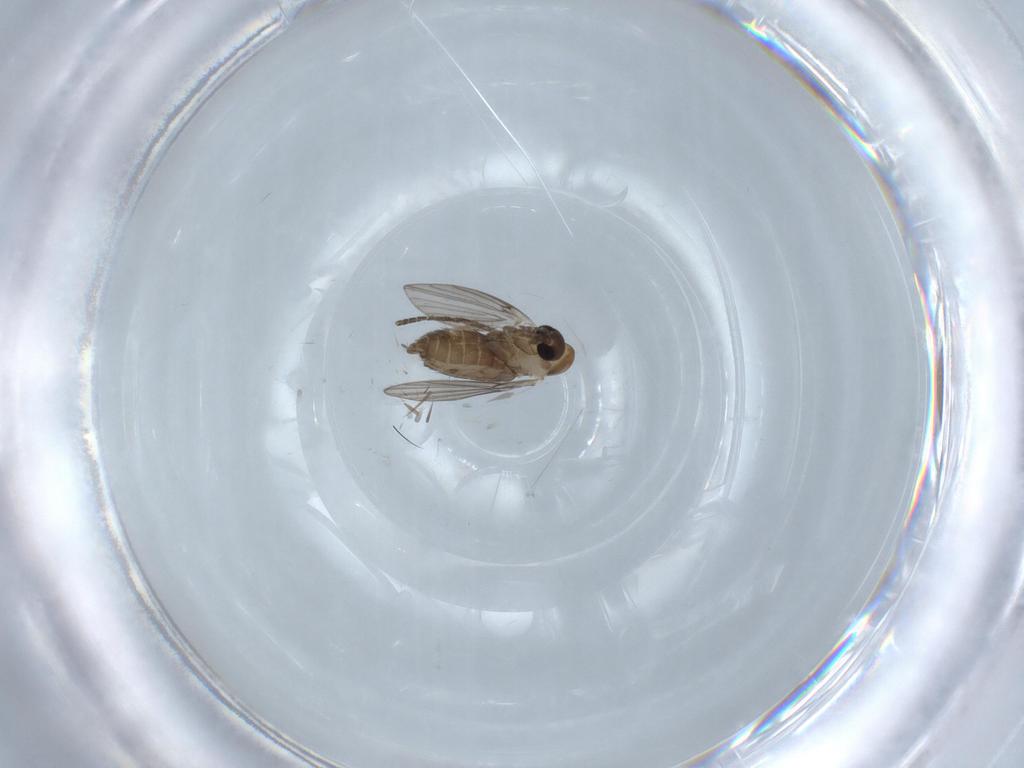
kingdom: Animalia
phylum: Arthropoda
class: Insecta
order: Diptera
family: Psychodidae
